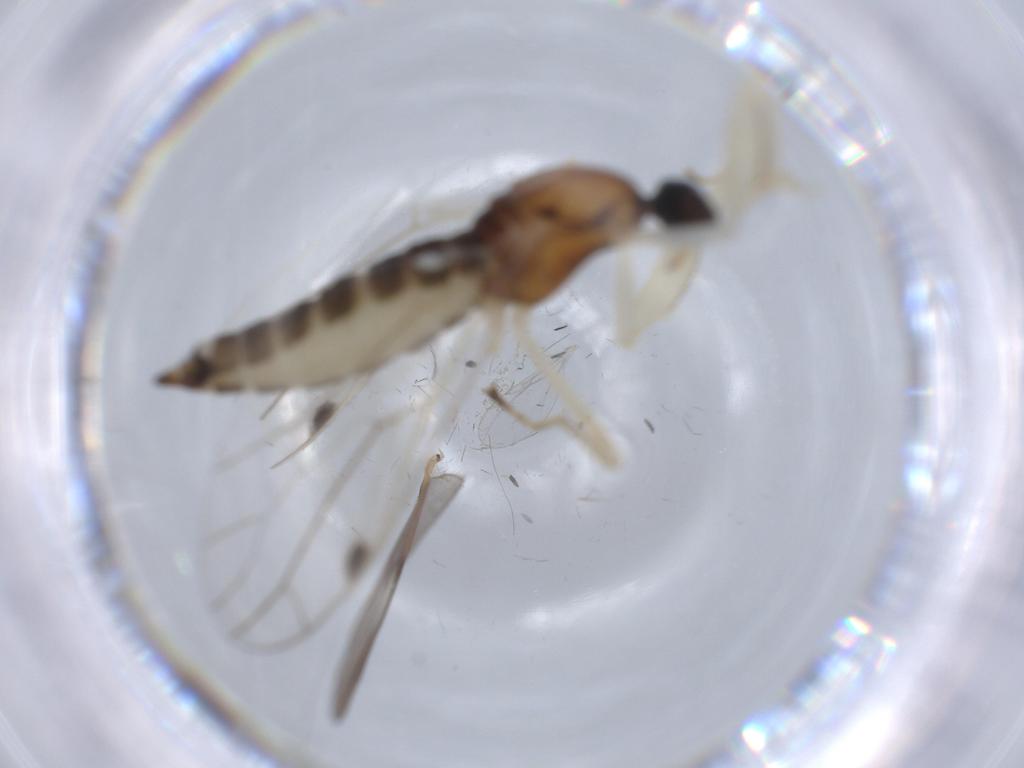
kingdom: Animalia
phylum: Arthropoda
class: Insecta
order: Diptera
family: Empididae
